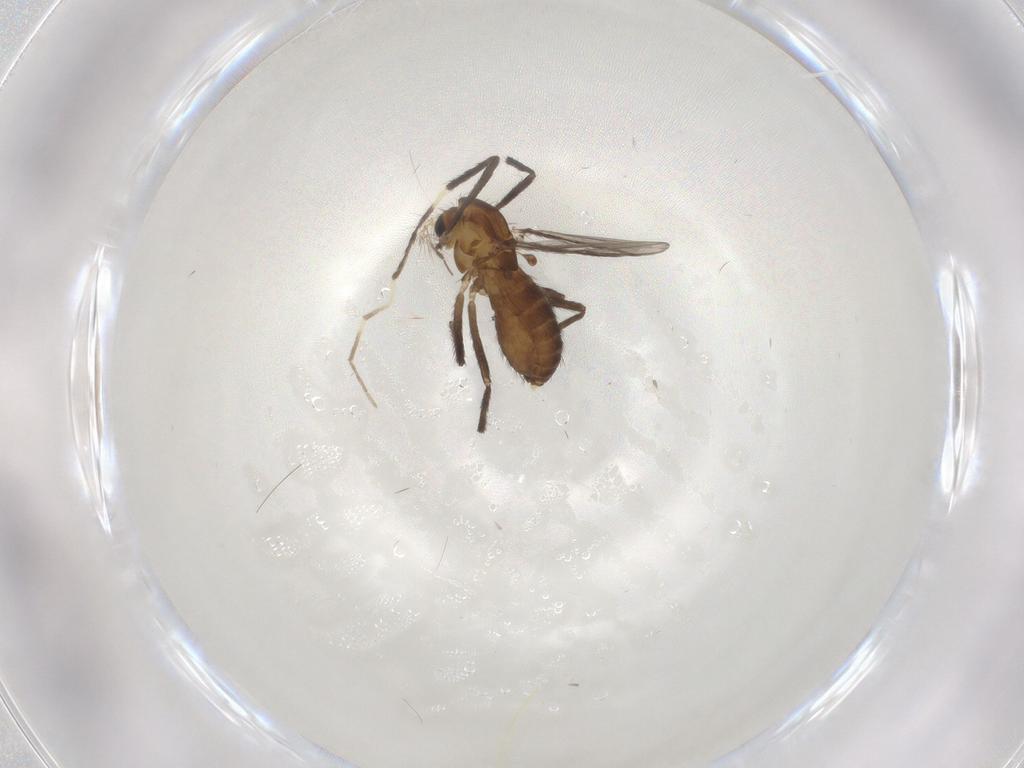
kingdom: Animalia
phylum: Arthropoda
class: Insecta
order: Diptera
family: Chironomidae
